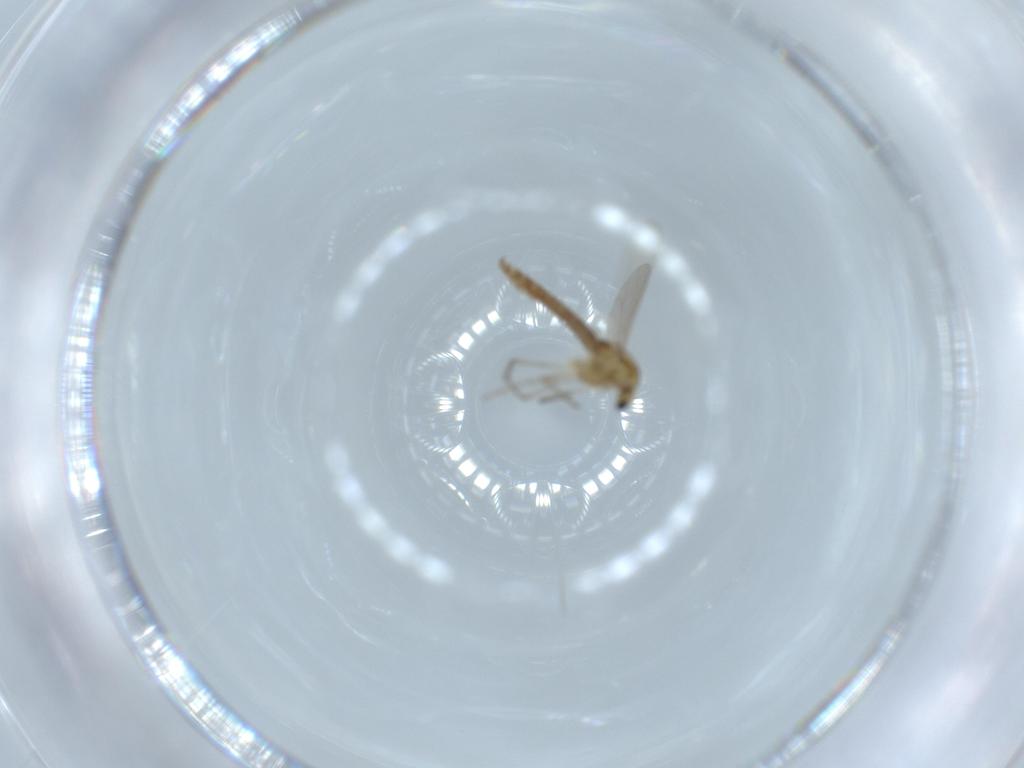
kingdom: Animalia
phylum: Arthropoda
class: Insecta
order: Diptera
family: Chironomidae
